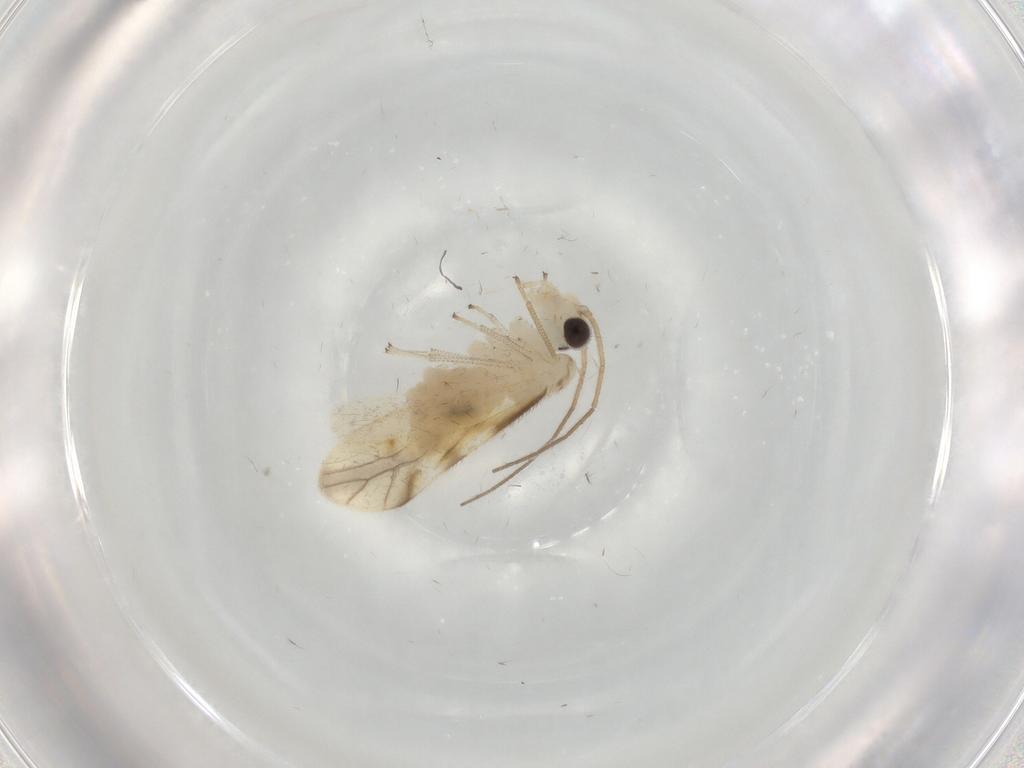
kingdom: Animalia
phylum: Arthropoda
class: Insecta
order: Psocodea
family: Caeciliusidae
